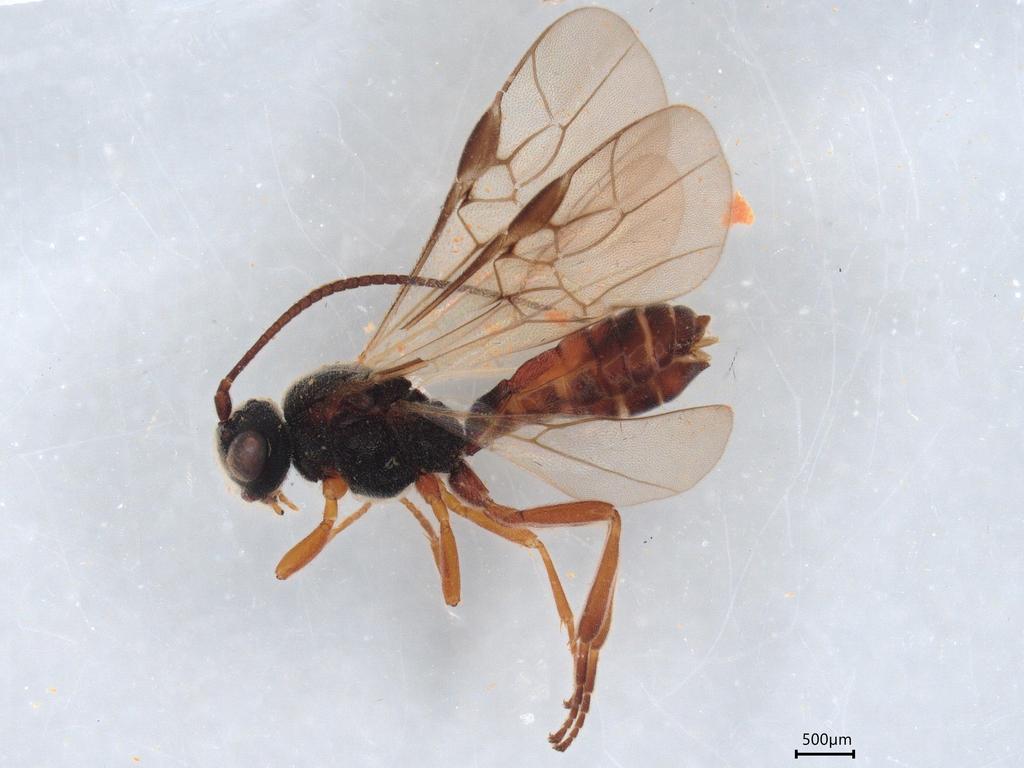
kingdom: Animalia
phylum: Arthropoda
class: Insecta
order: Hymenoptera
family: Braconidae
